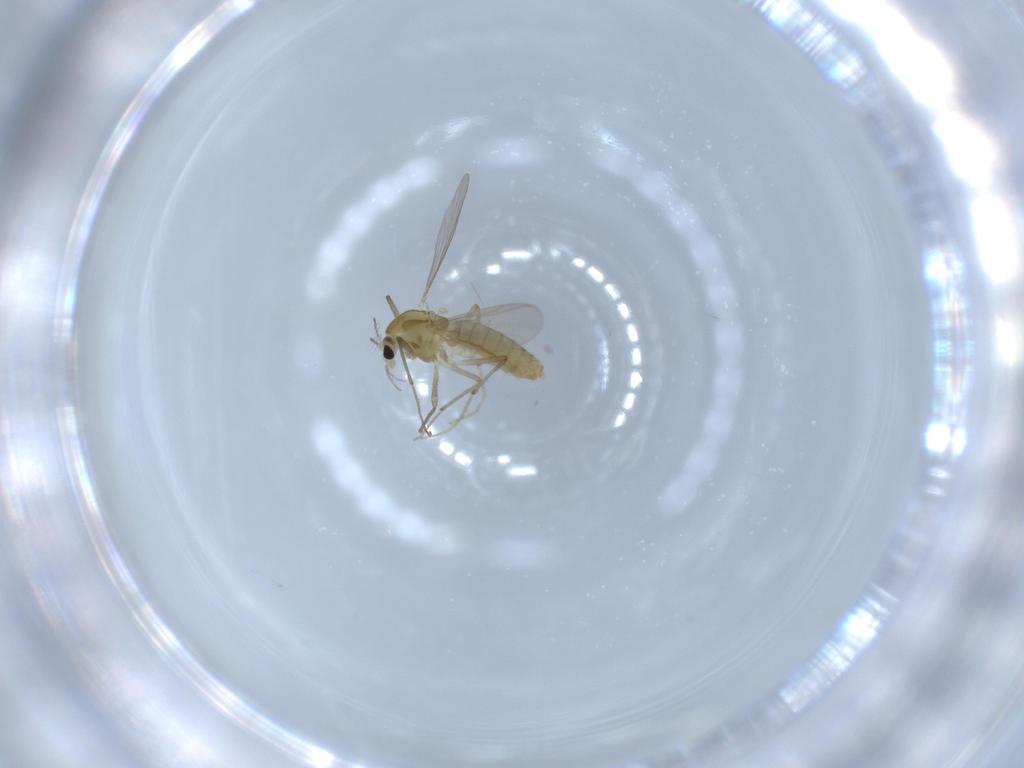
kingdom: Animalia
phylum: Arthropoda
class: Insecta
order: Diptera
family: Chironomidae
